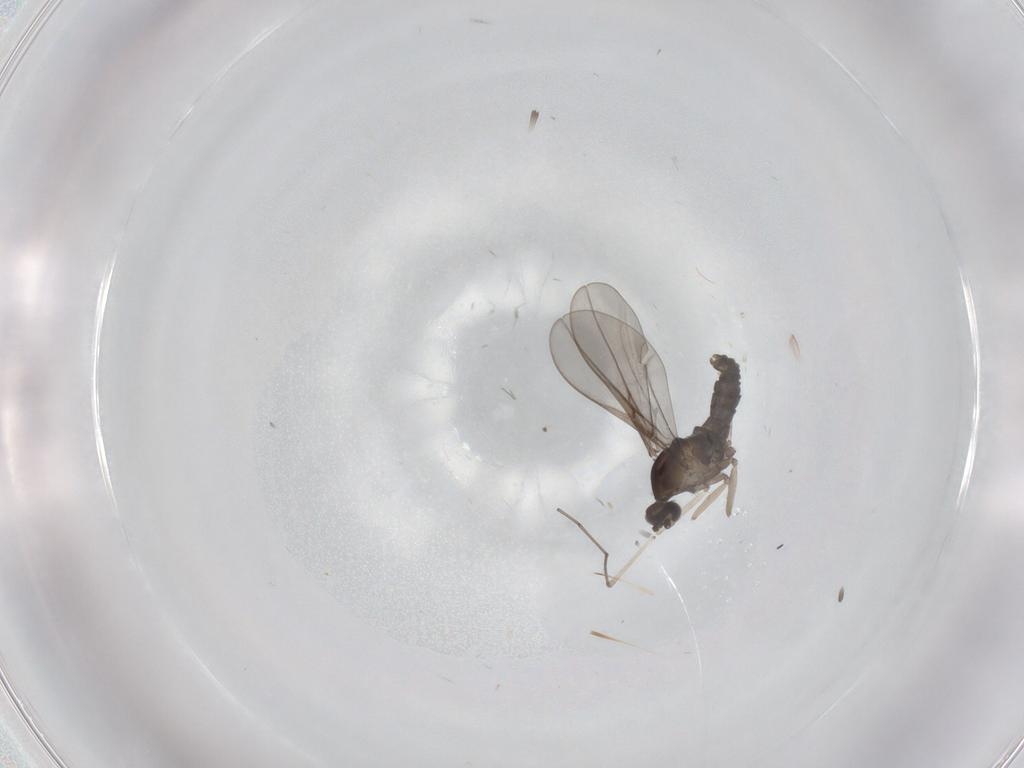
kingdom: Animalia
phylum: Arthropoda
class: Insecta
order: Diptera
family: Cecidomyiidae
